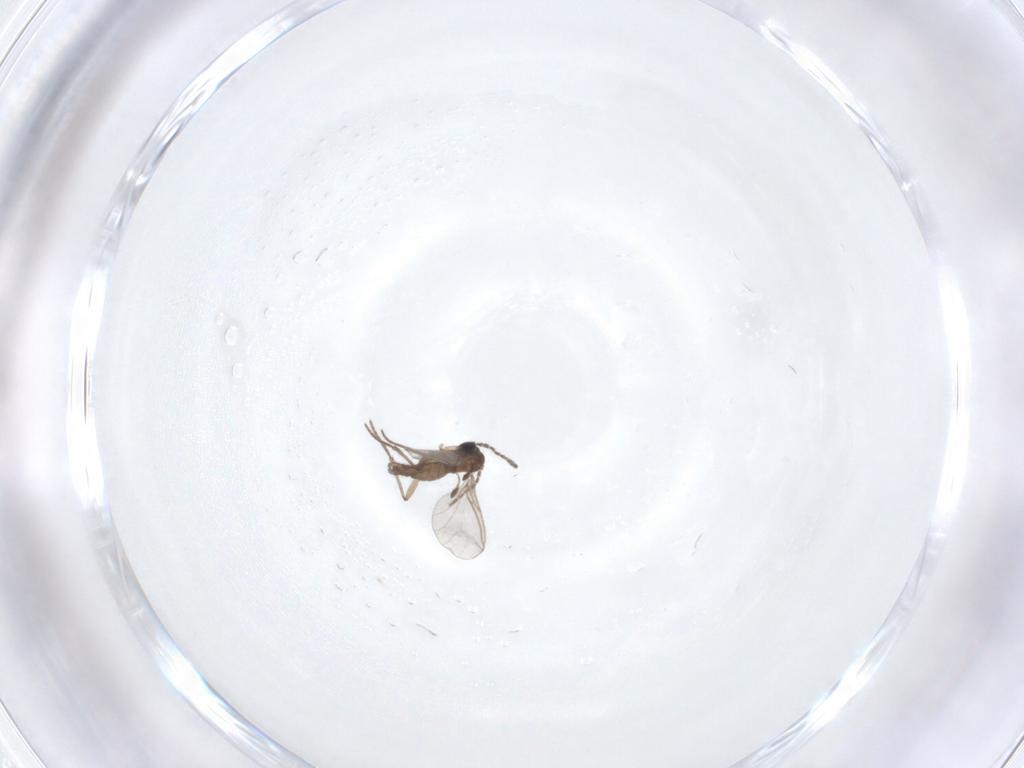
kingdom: Animalia
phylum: Arthropoda
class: Insecta
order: Diptera
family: Sciaridae
